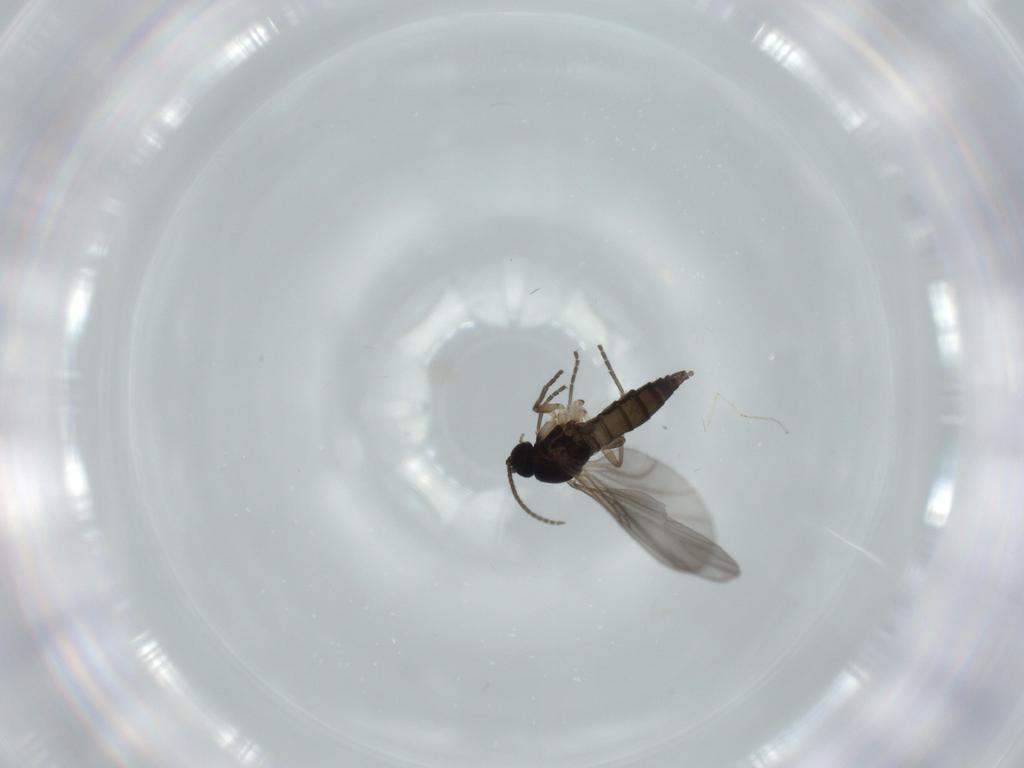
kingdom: Animalia
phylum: Arthropoda
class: Insecta
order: Diptera
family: Sciaridae
